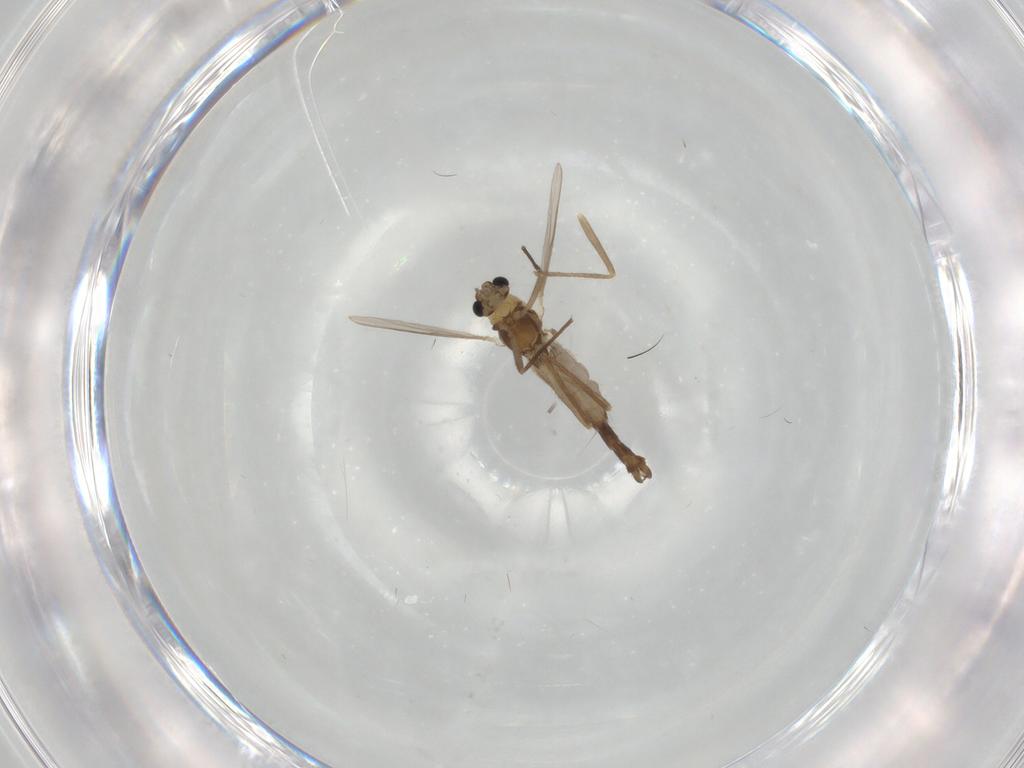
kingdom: Animalia
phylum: Arthropoda
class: Insecta
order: Diptera
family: Chironomidae
